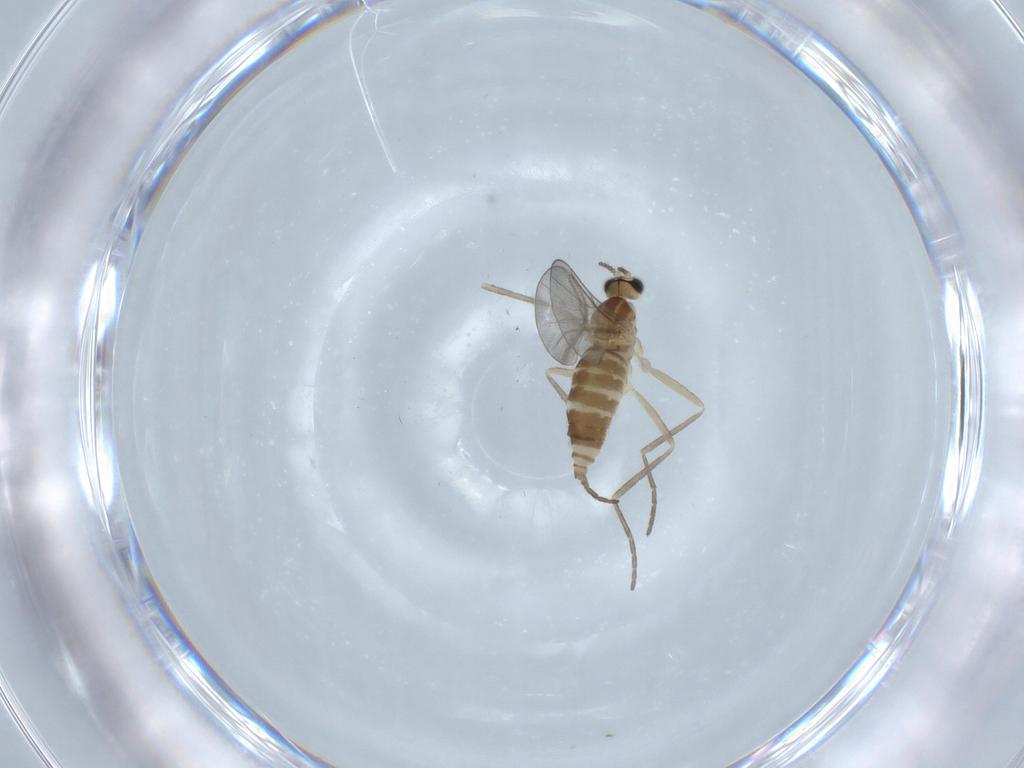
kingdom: Animalia
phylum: Arthropoda
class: Insecta
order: Diptera
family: Cecidomyiidae
